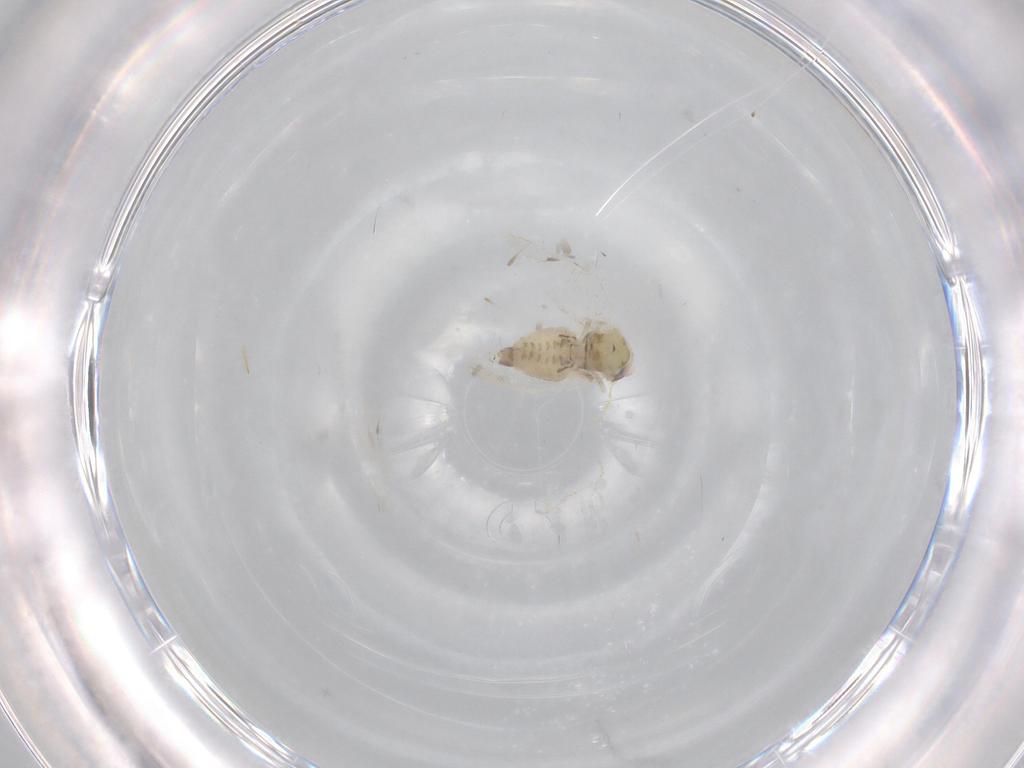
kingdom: Animalia
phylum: Arthropoda
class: Insecta
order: Hemiptera
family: Aleyrodidae
